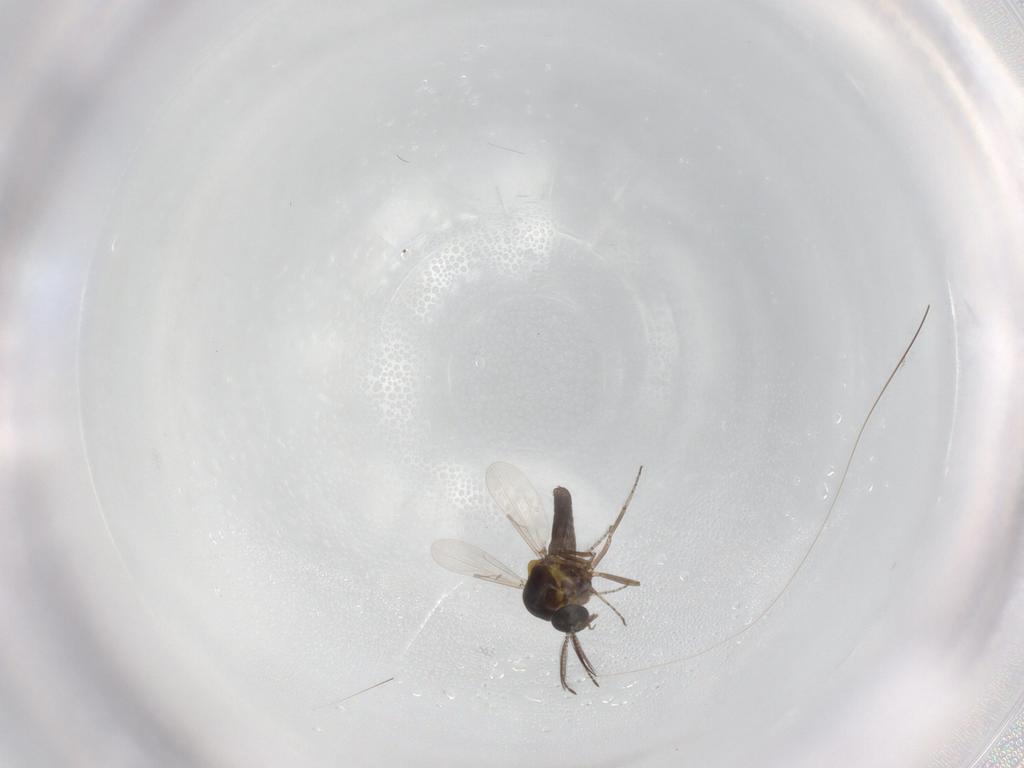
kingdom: Animalia
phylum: Arthropoda
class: Insecta
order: Diptera
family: Ceratopogonidae
